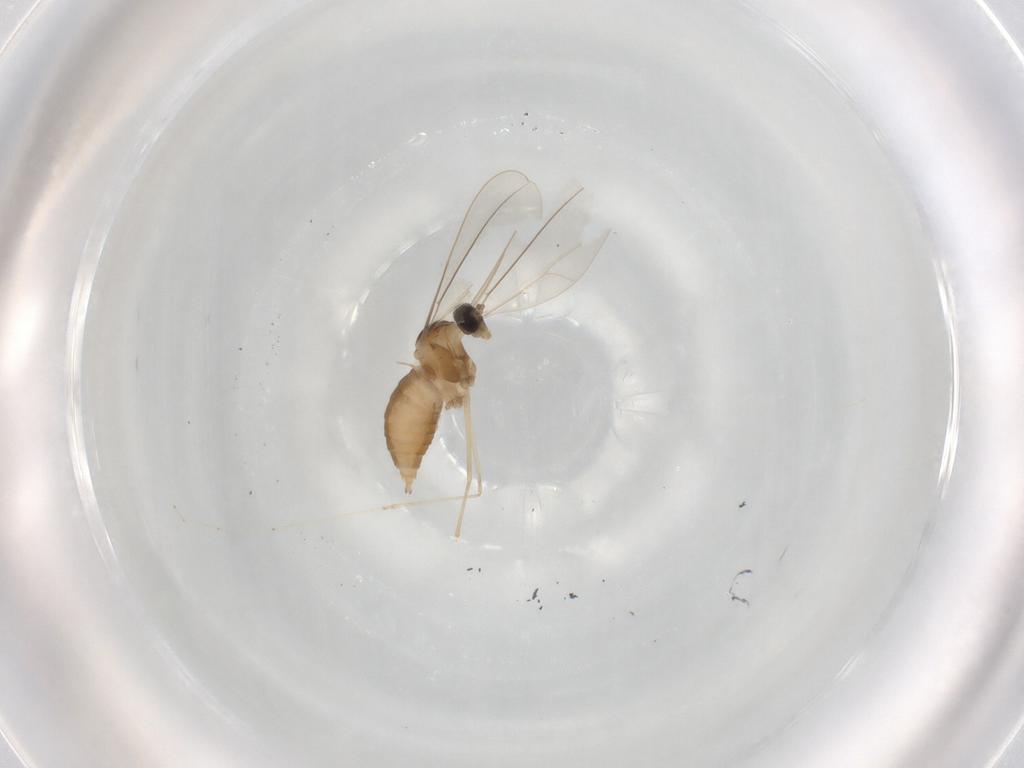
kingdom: Animalia
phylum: Arthropoda
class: Insecta
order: Diptera
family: Cecidomyiidae
